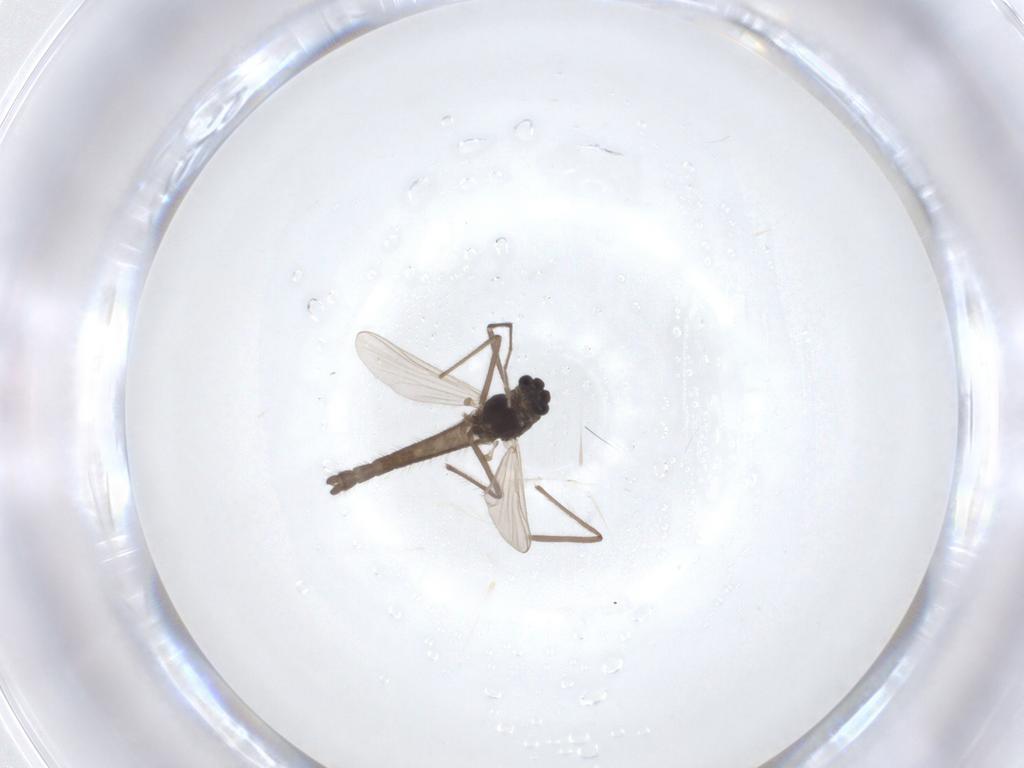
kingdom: Animalia
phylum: Arthropoda
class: Insecta
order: Diptera
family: Chironomidae
